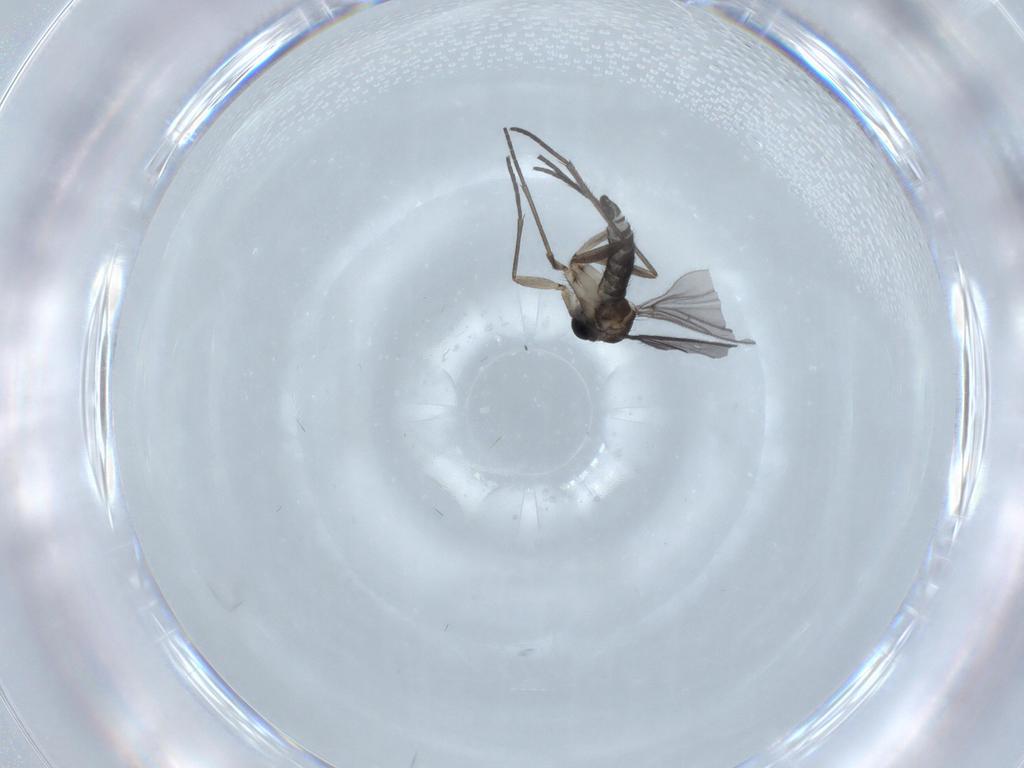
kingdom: Animalia
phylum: Arthropoda
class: Insecta
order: Diptera
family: Sciaridae
